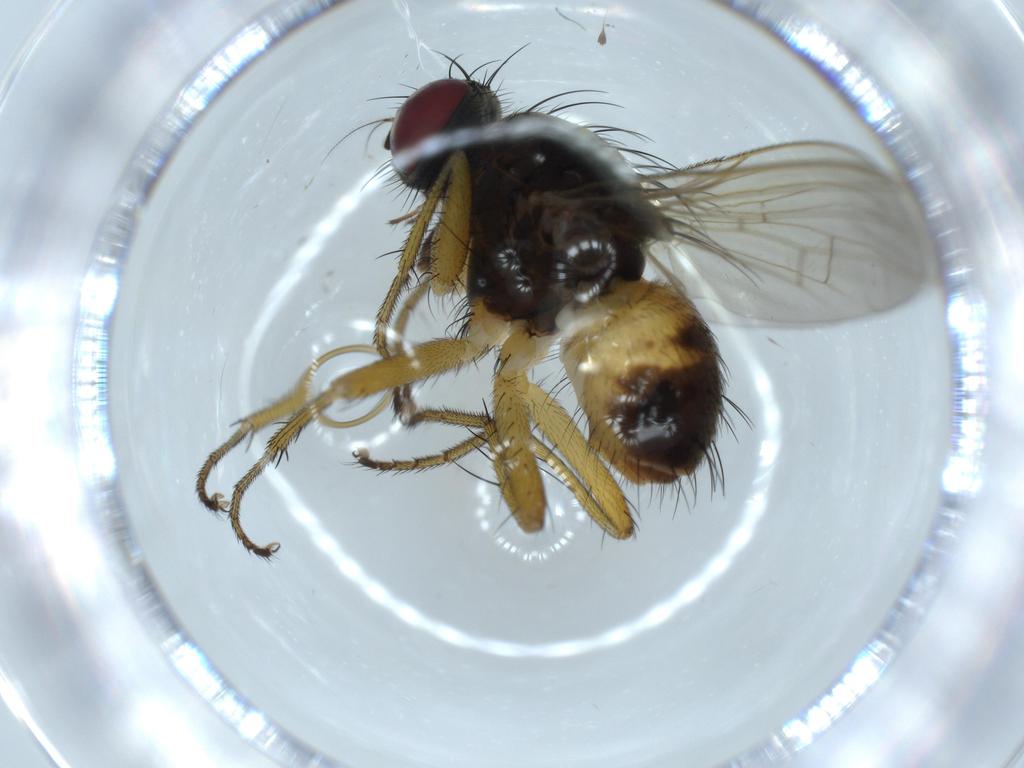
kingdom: Animalia
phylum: Arthropoda
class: Insecta
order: Diptera
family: Muscidae
